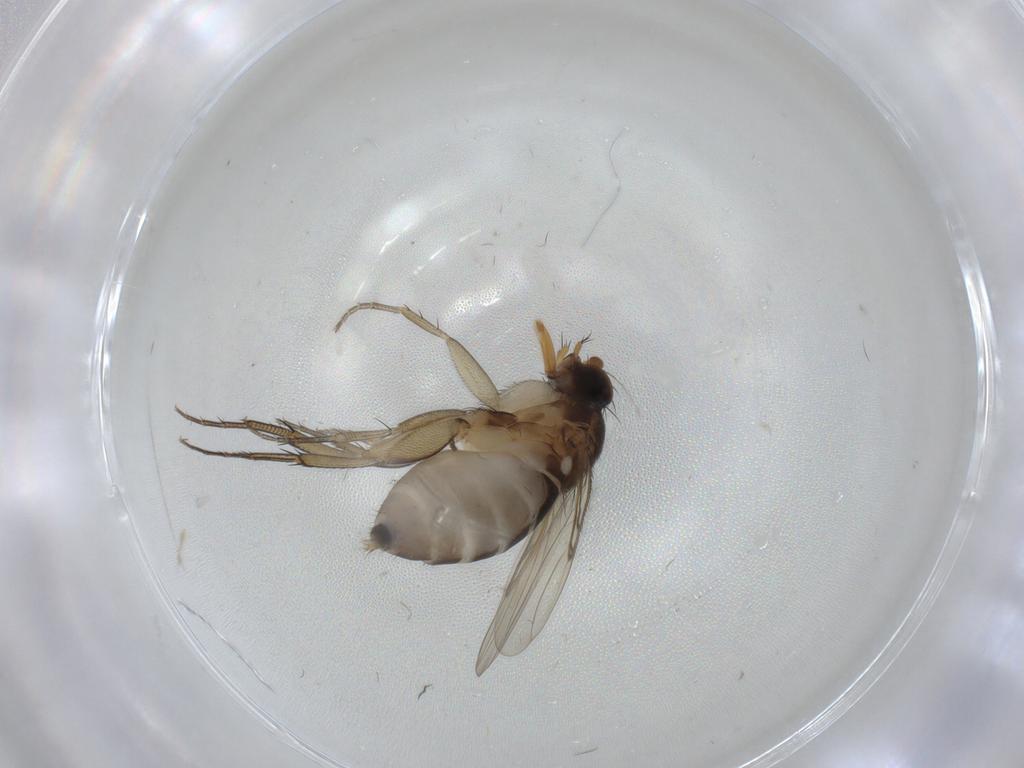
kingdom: Animalia
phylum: Arthropoda
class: Insecta
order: Diptera
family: Phoridae
